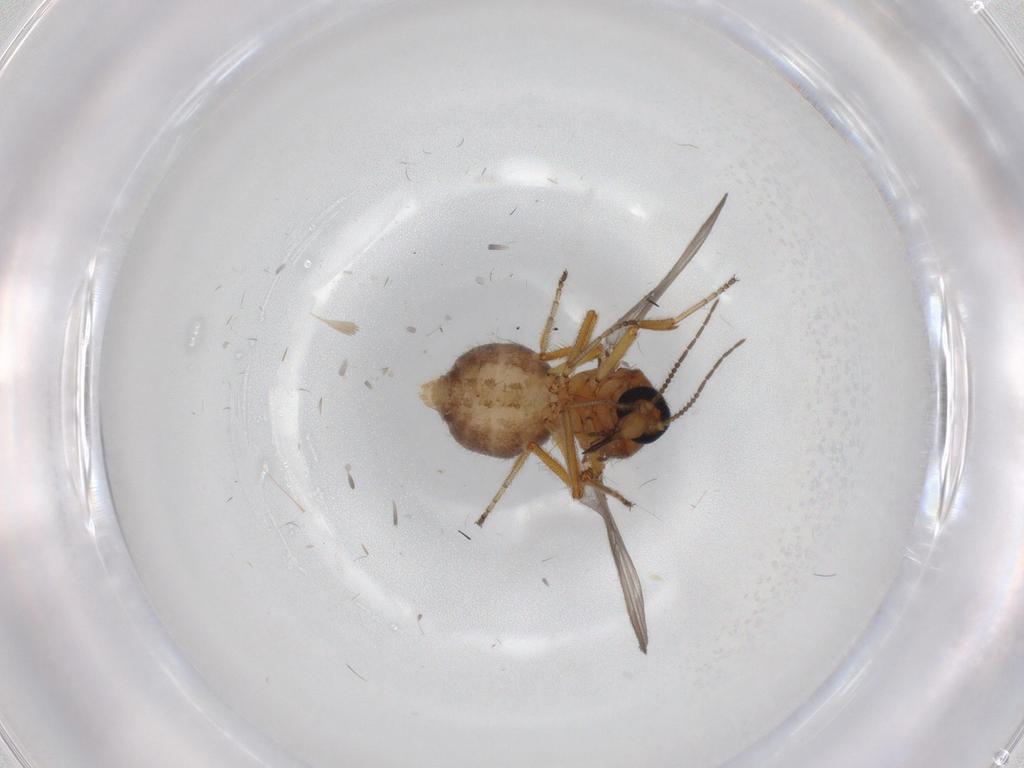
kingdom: Animalia
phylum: Arthropoda
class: Insecta
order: Diptera
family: Ceratopogonidae
